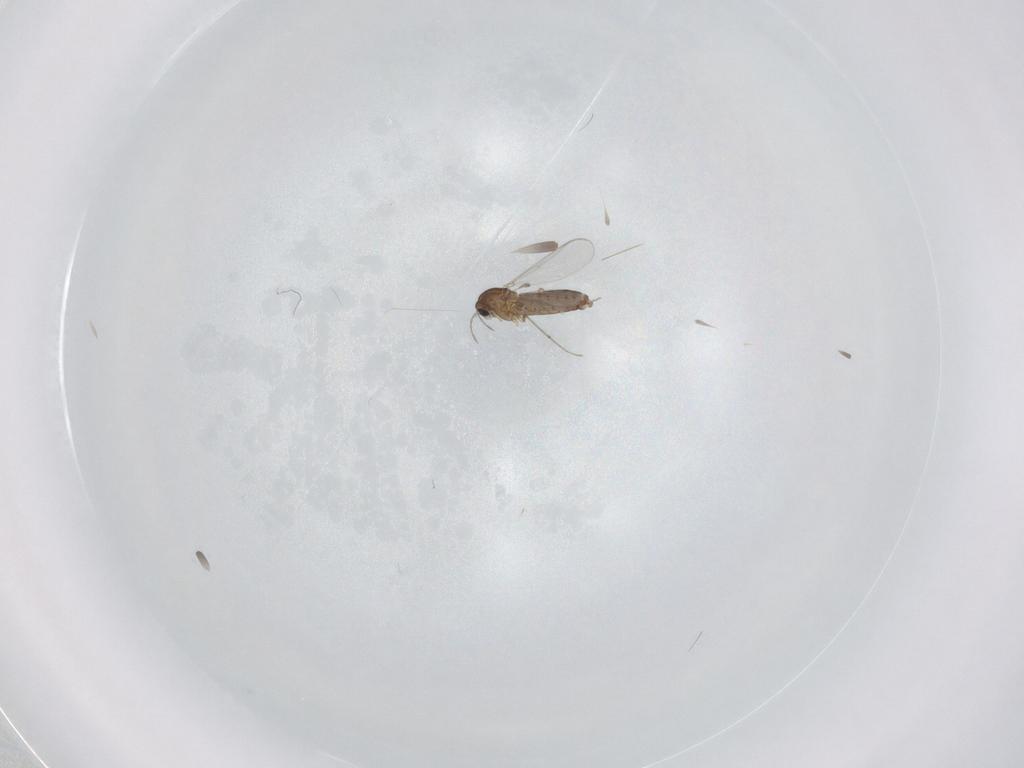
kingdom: Animalia
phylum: Arthropoda
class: Insecta
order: Diptera
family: Chironomidae
